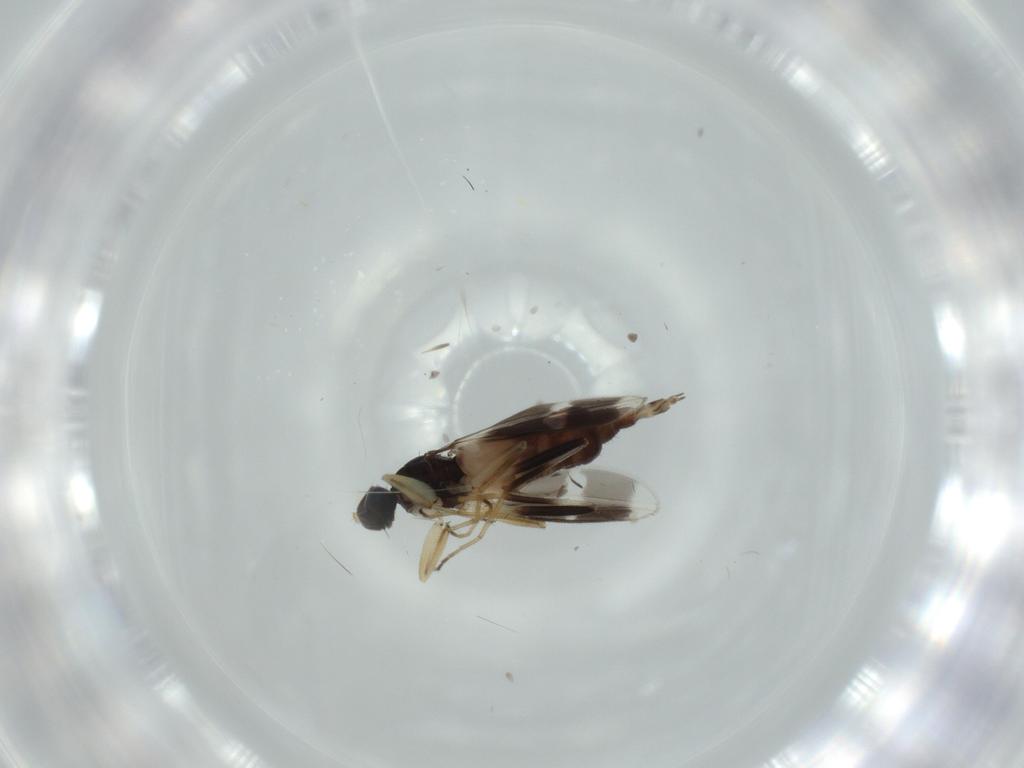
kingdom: Animalia
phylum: Arthropoda
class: Insecta
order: Diptera
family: Hybotidae
